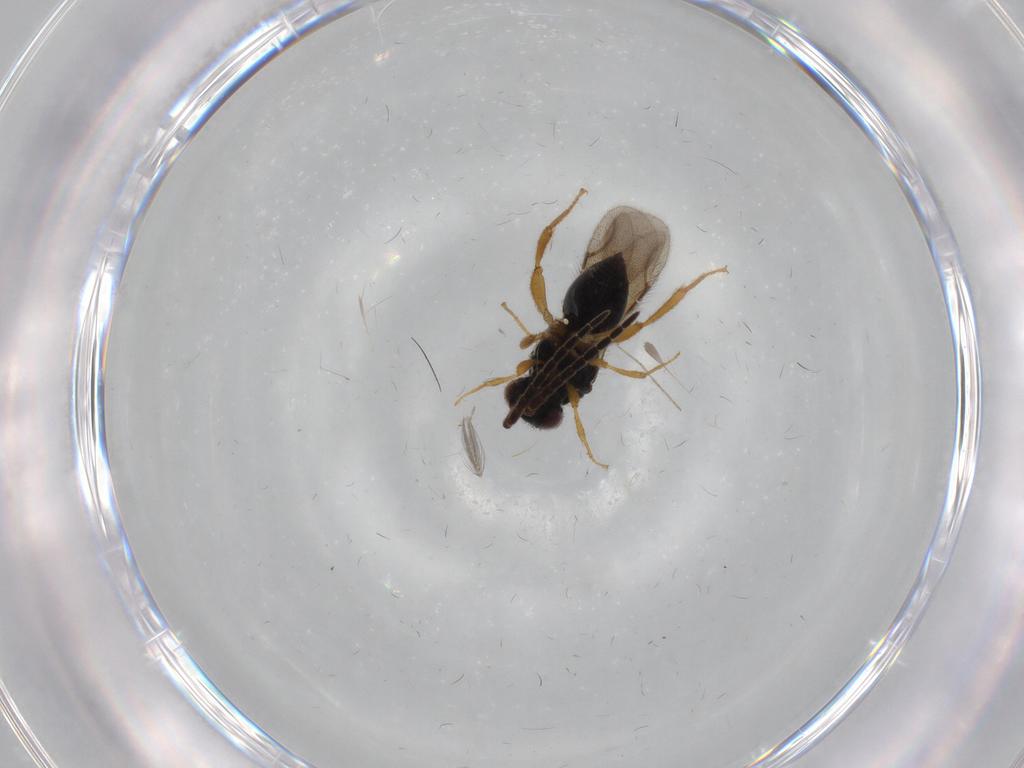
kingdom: Animalia
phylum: Arthropoda
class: Insecta
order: Hymenoptera
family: Ceraphronidae
